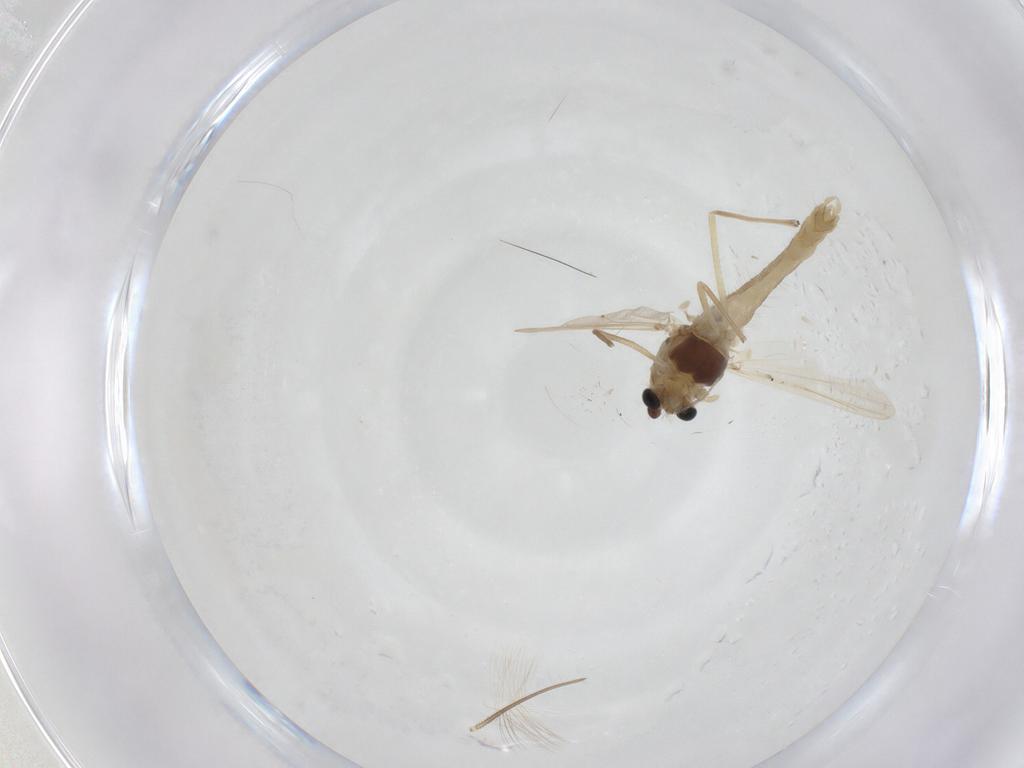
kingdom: Animalia
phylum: Arthropoda
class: Insecta
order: Diptera
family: Chironomidae
